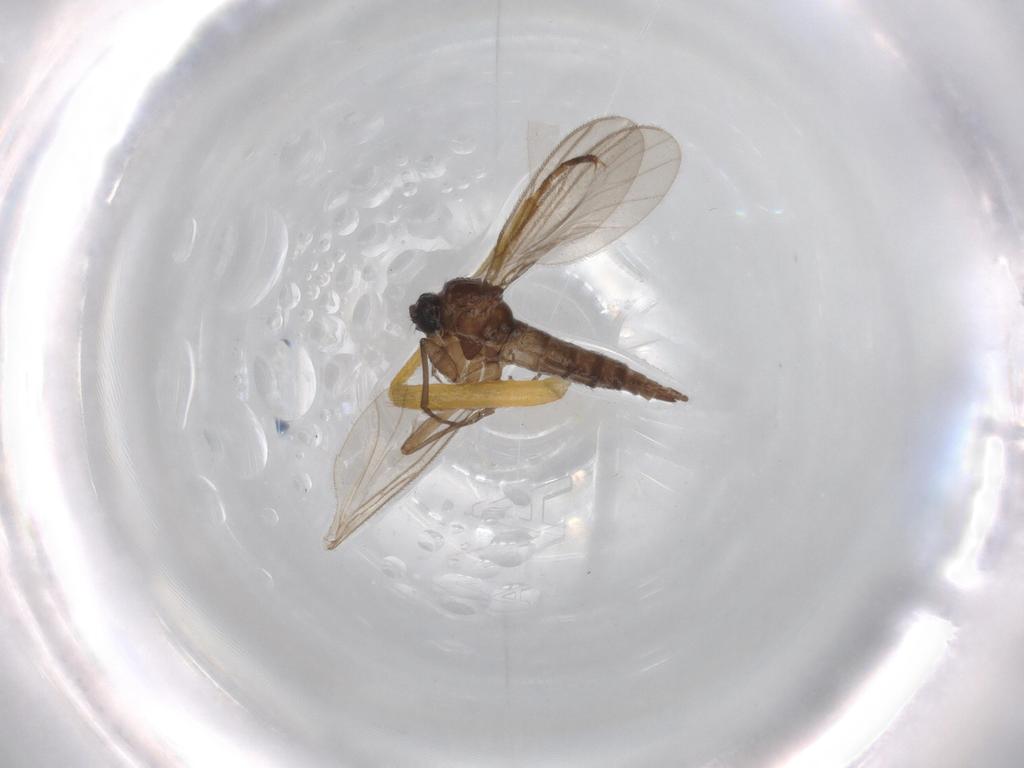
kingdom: Animalia
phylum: Arthropoda
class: Insecta
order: Diptera
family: Cecidomyiidae
